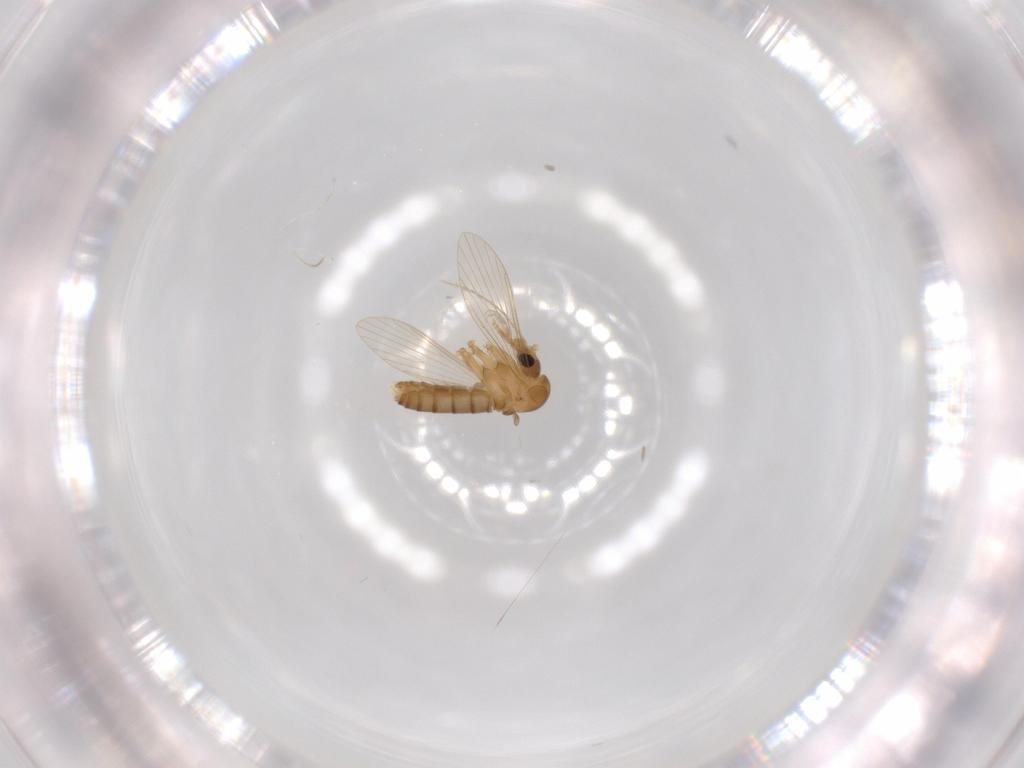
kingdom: Animalia
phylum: Arthropoda
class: Insecta
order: Diptera
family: Psychodidae
